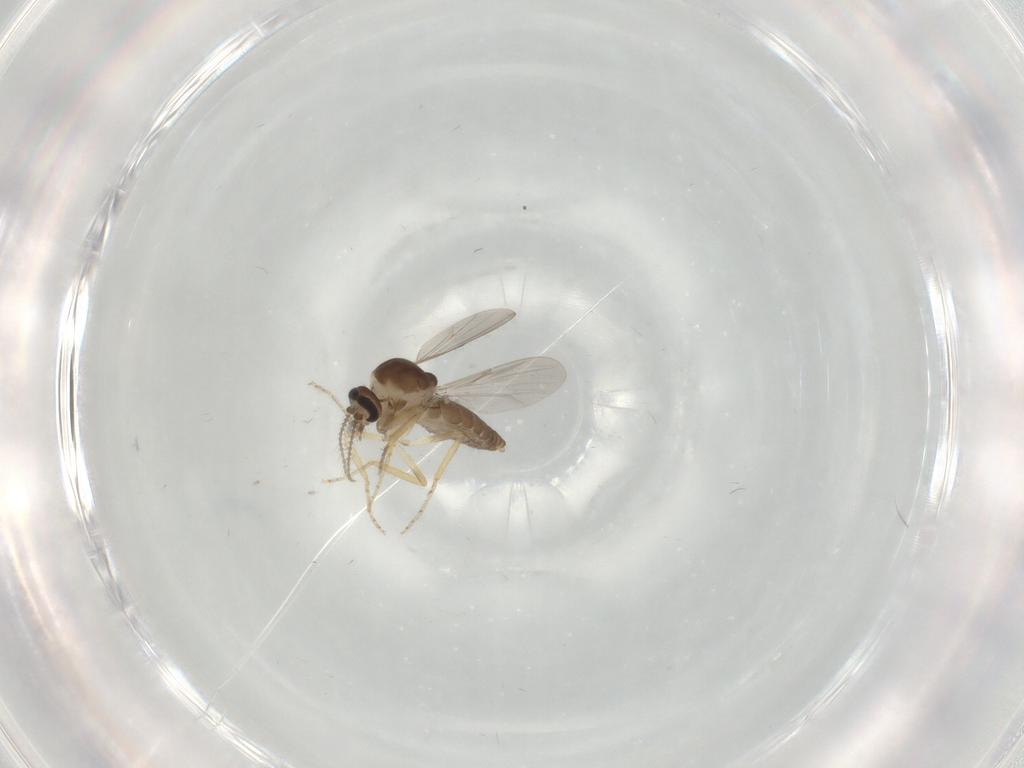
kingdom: Animalia
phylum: Arthropoda
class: Insecta
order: Diptera
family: Ceratopogonidae
